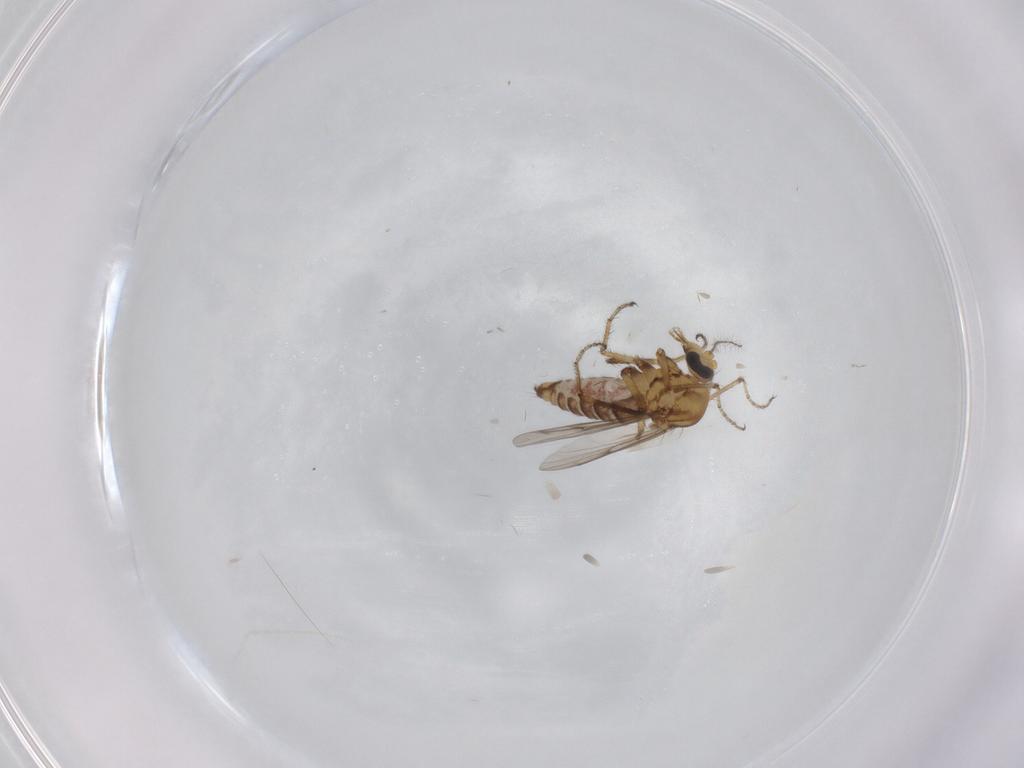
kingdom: Animalia
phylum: Arthropoda
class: Insecta
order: Diptera
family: Ceratopogonidae
